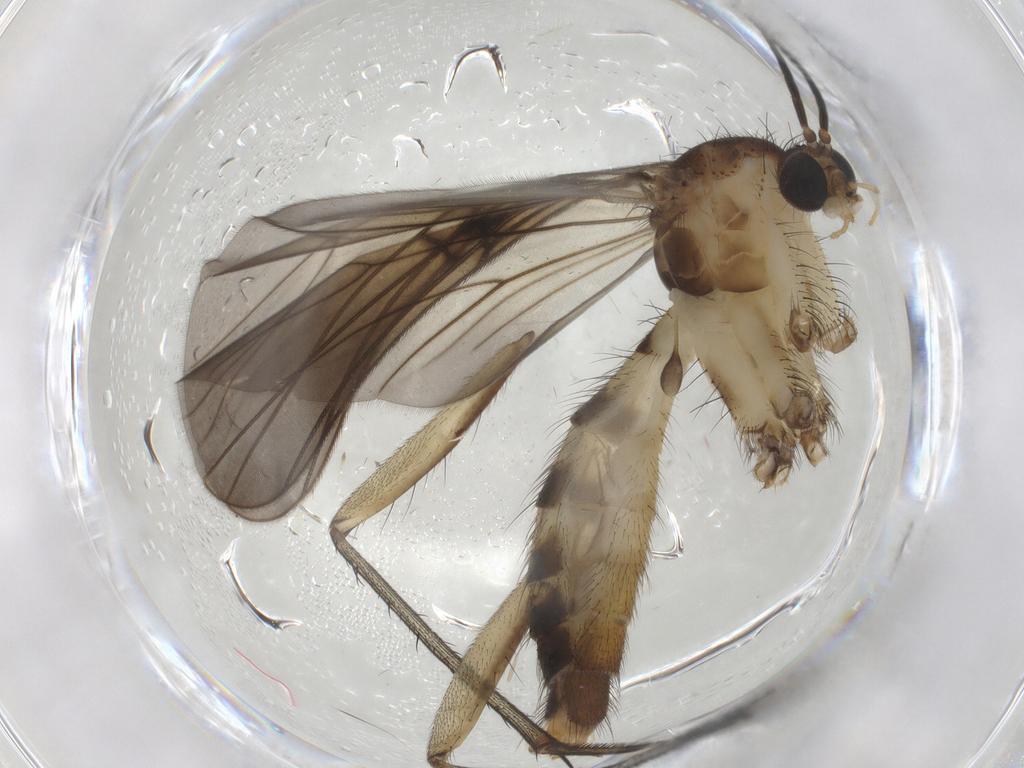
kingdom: Animalia
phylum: Arthropoda
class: Insecta
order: Diptera
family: Mycetophilidae
